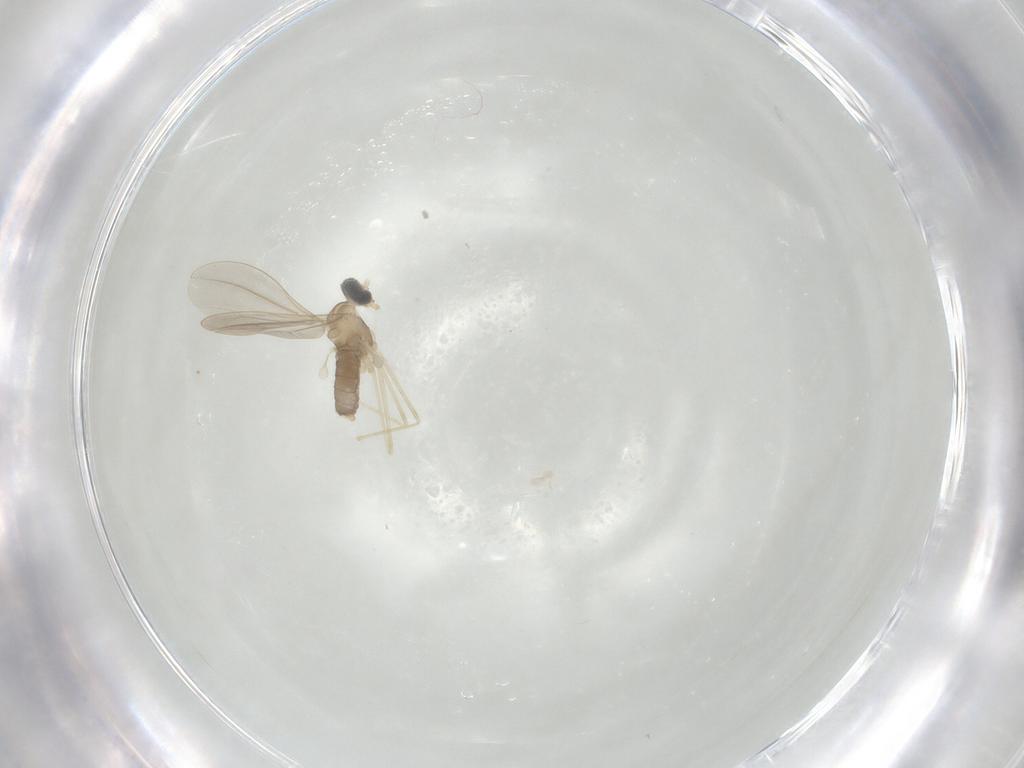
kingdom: Animalia
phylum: Arthropoda
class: Insecta
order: Diptera
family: Cecidomyiidae
